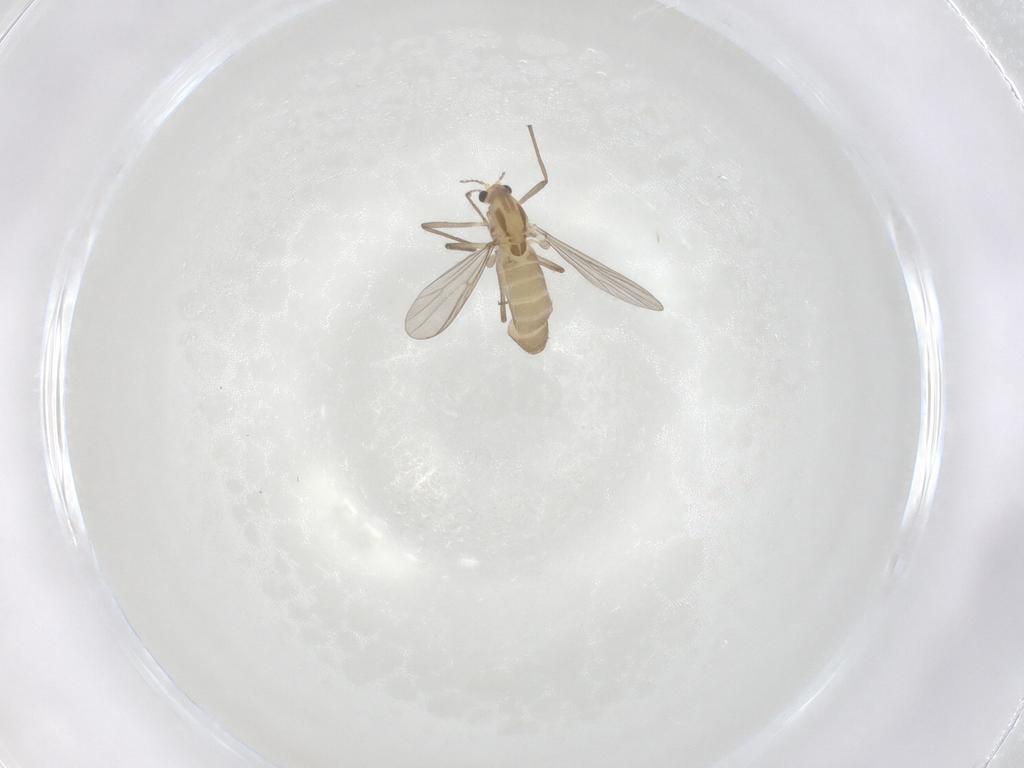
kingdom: Animalia
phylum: Arthropoda
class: Insecta
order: Diptera
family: Chironomidae
